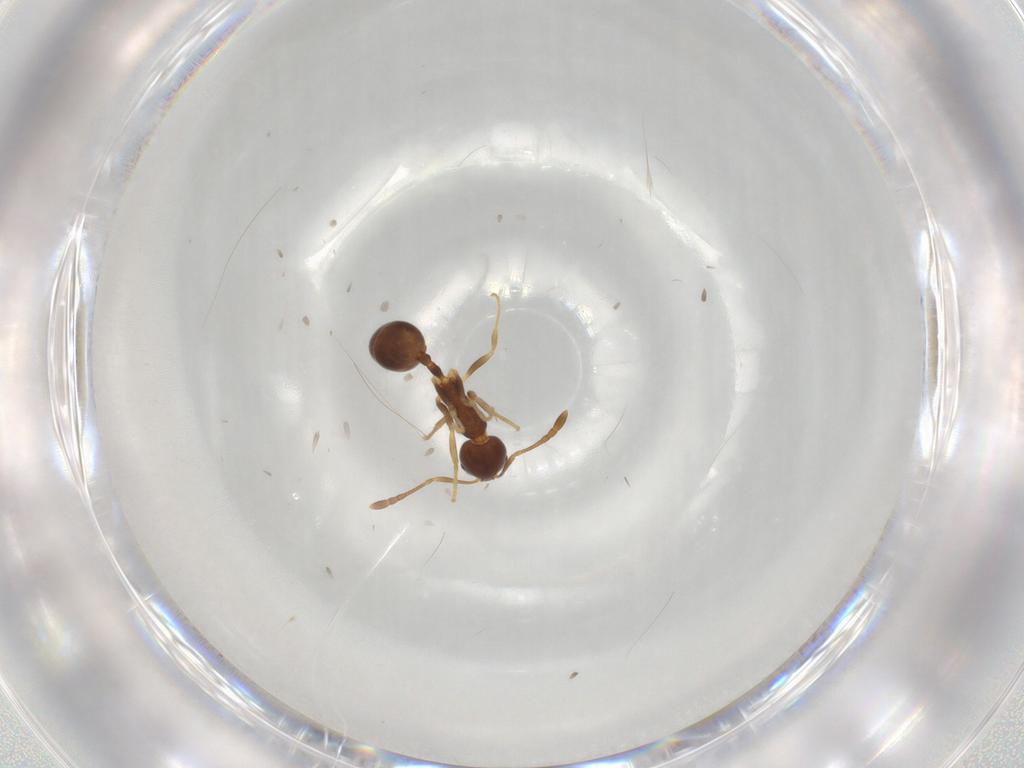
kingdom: Animalia
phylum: Arthropoda
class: Insecta
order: Hymenoptera
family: Formicidae
